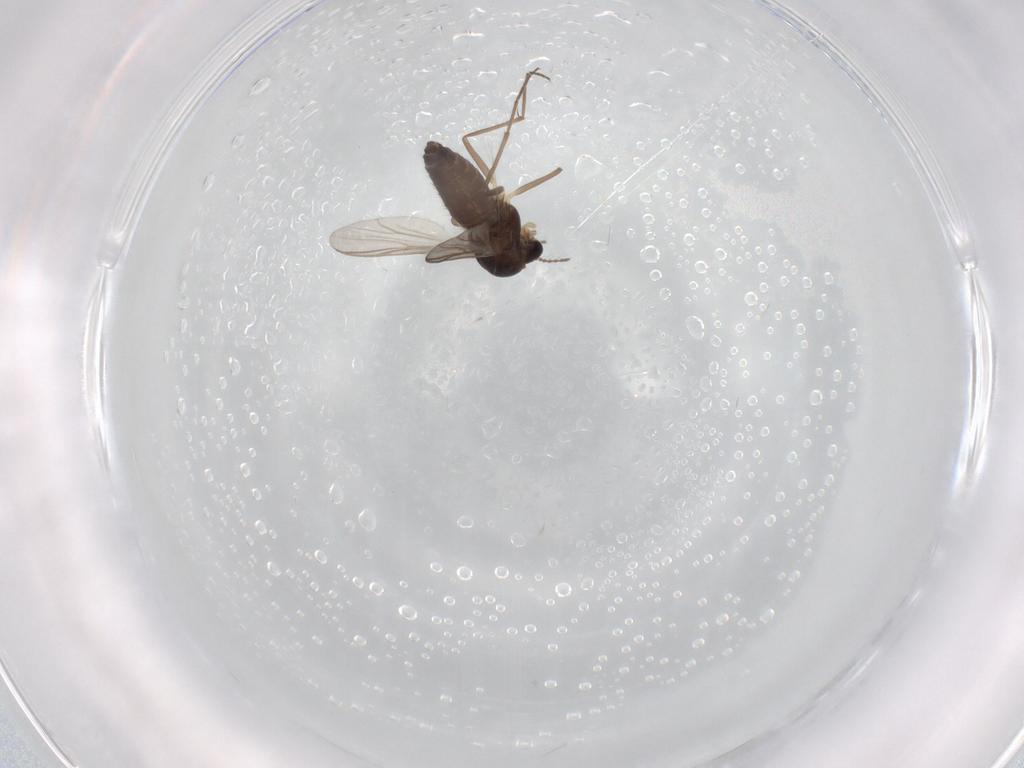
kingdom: Animalia
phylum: Arthropoda
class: Insecta
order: Diptera
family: Chironomidae
